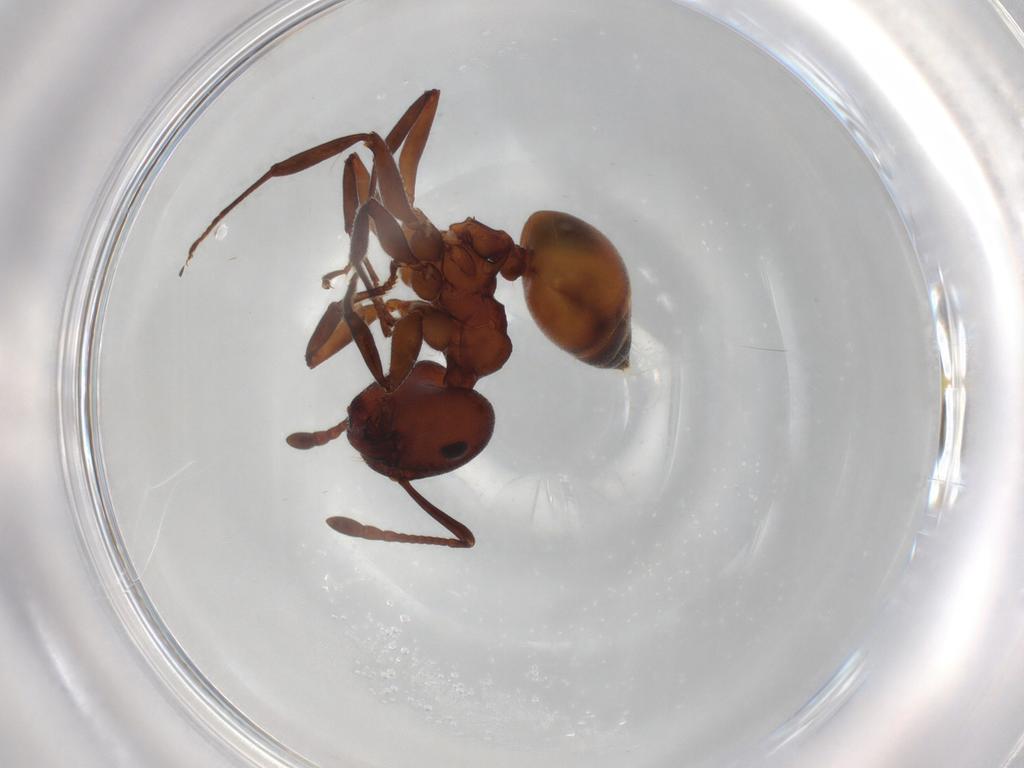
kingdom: Animalia
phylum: Arthropoda
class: Insecta
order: Hymenoptera
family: Formicidae
